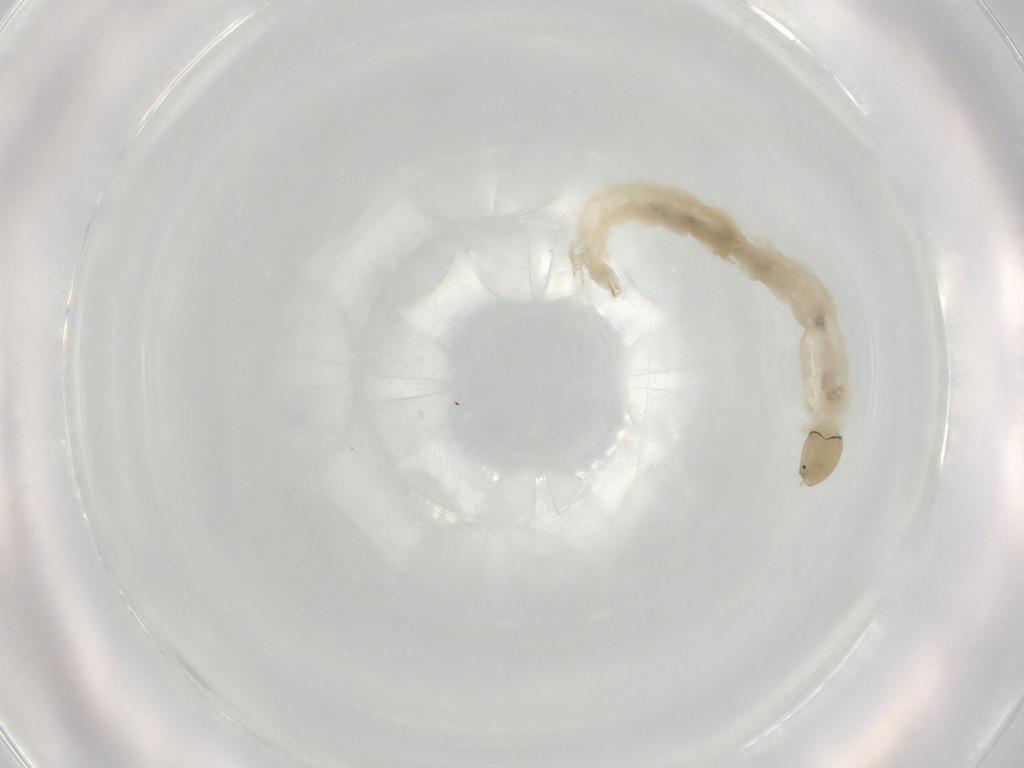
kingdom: Animalia
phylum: Arthropoda
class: Insecta
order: Diptera
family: Chironomidae
